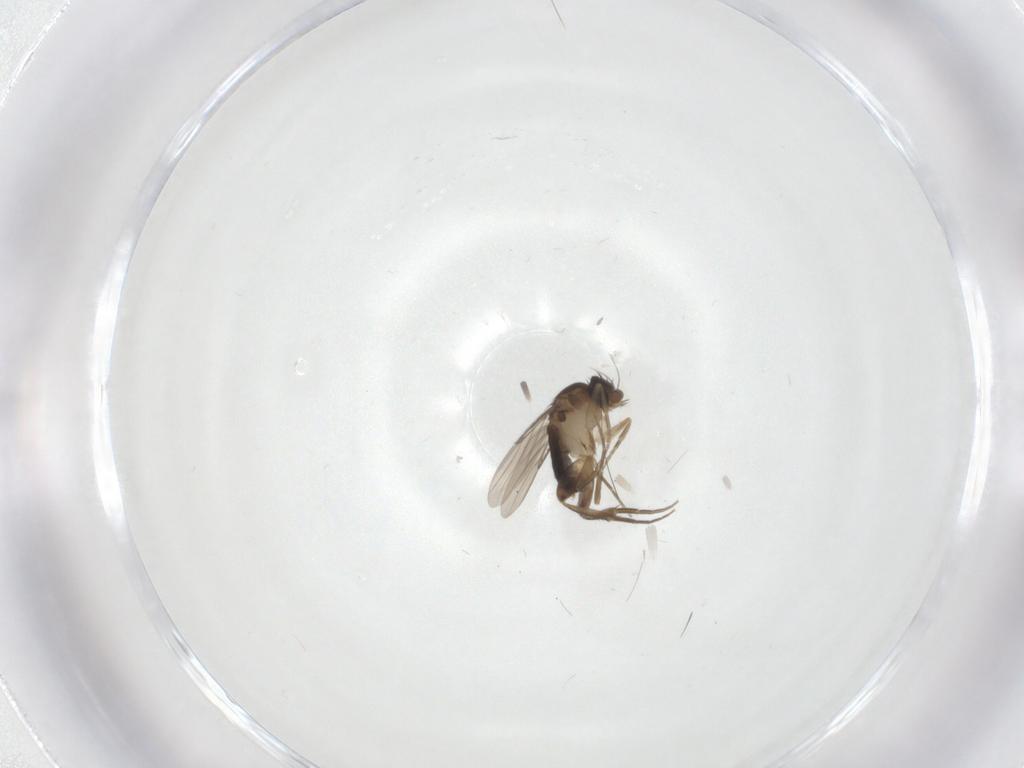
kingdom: Animalia
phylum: Arthropoda
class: Insecta
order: Diptera
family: Phoridae
